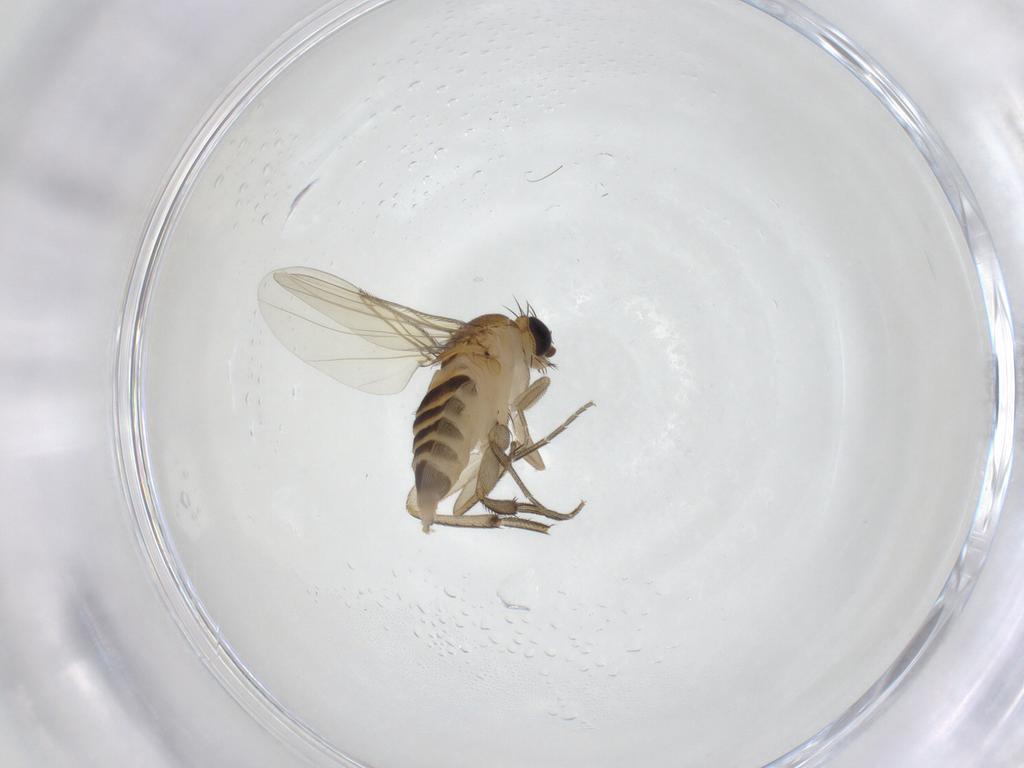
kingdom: Animalia
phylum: Arthropoda
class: Insecta
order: Diptera
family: Phoridae
